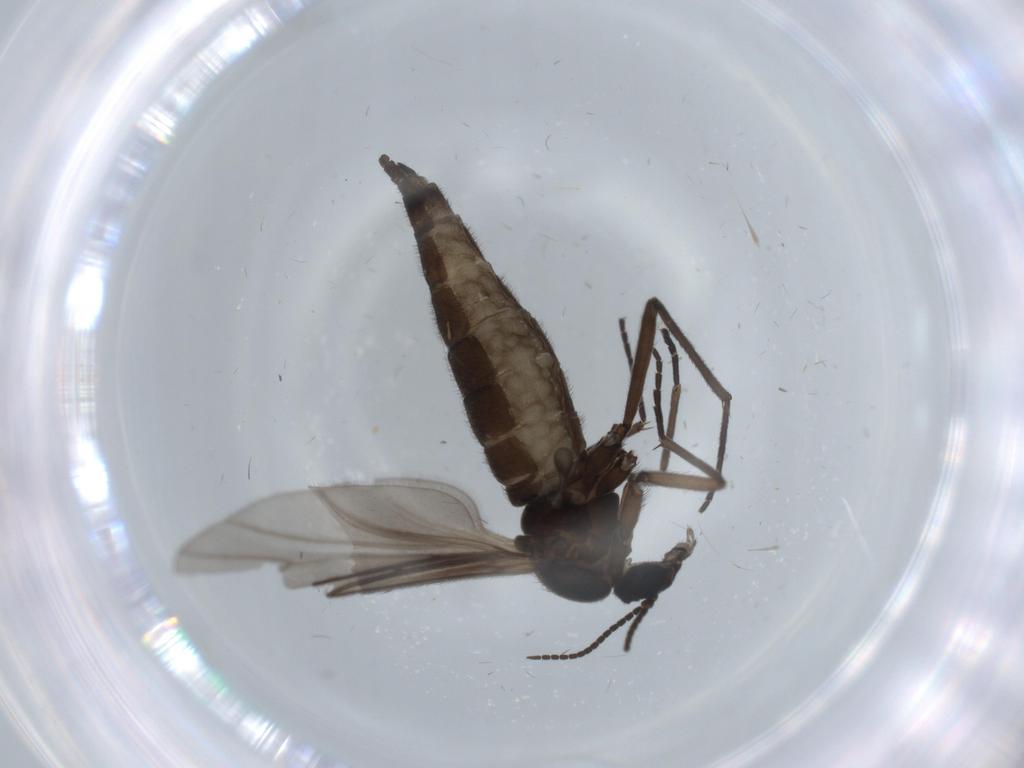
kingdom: Animalia
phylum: Arthropoda
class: Insecta
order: Diptera
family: Sciaridae
